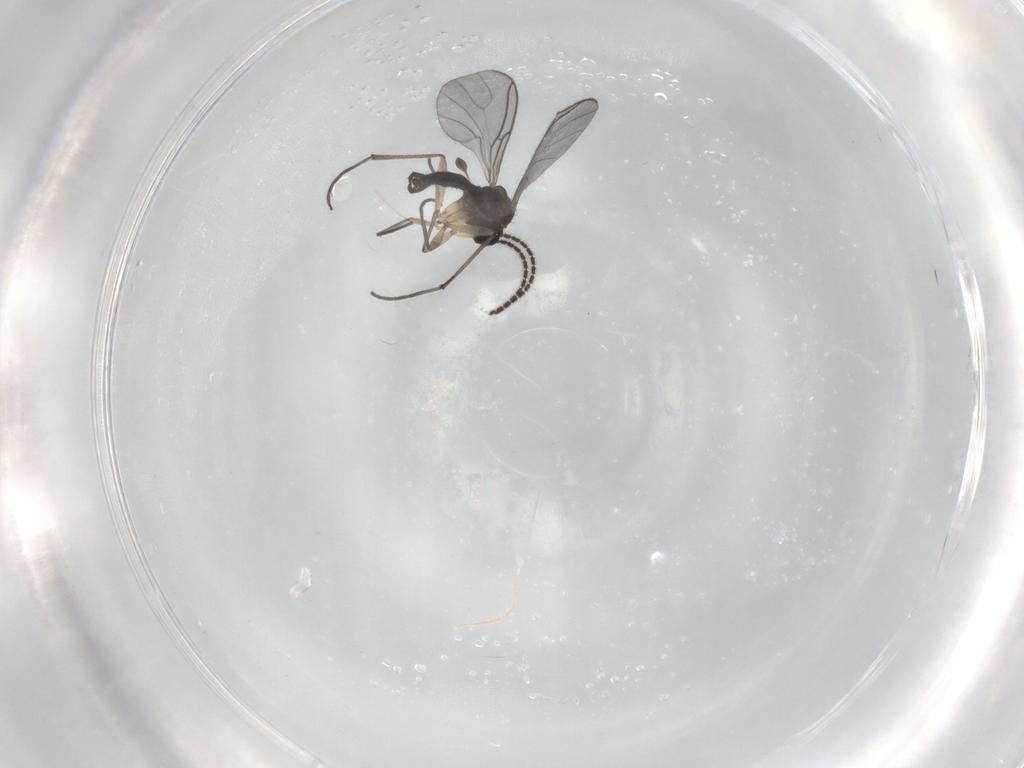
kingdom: Animalia
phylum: Arthropoda
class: Insecta
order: Diptera
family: Sciaridae
